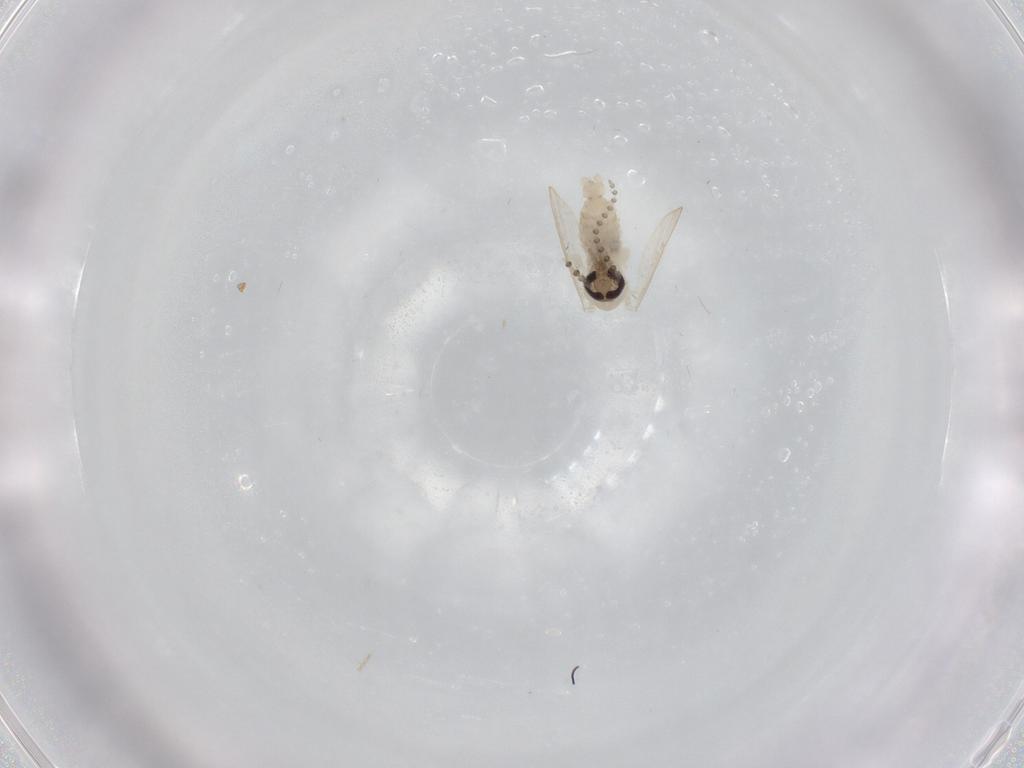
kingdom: Animalia
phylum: Arthropoda
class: Insecta
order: Diptera
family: Psychodidae
